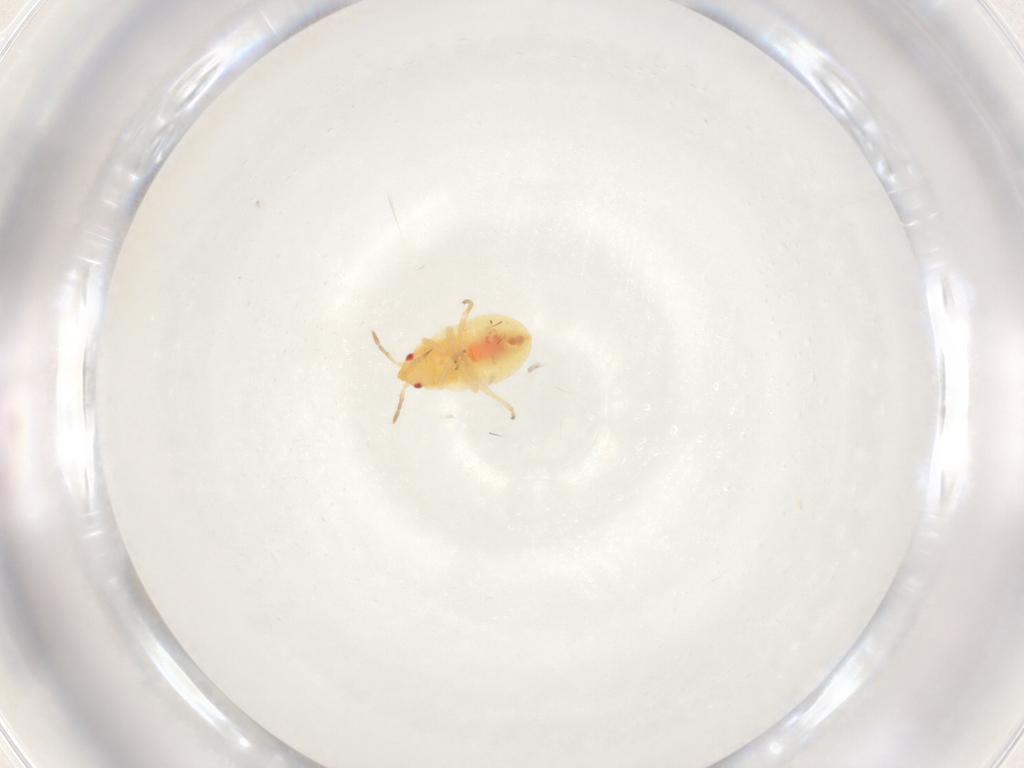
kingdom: Animalia
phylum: Arthropoda
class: Insecta
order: Hemiptera
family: Anthocoridae
